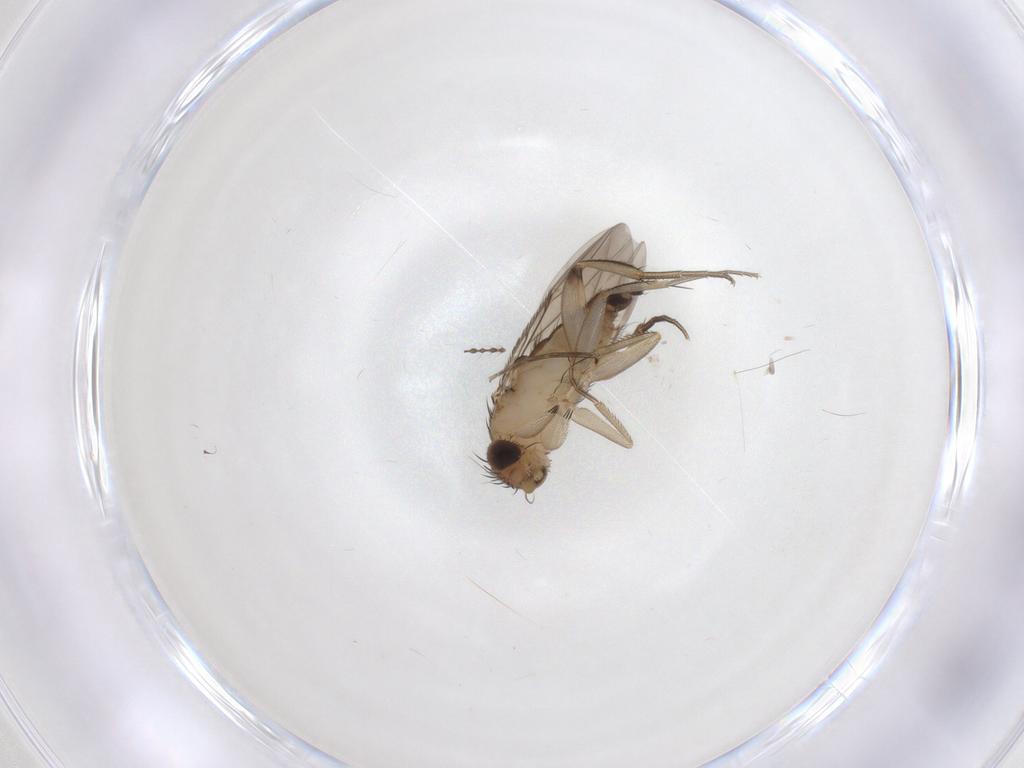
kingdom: Animalia
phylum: Arthropoda
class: Insecta
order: Diptera
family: Phoridae
